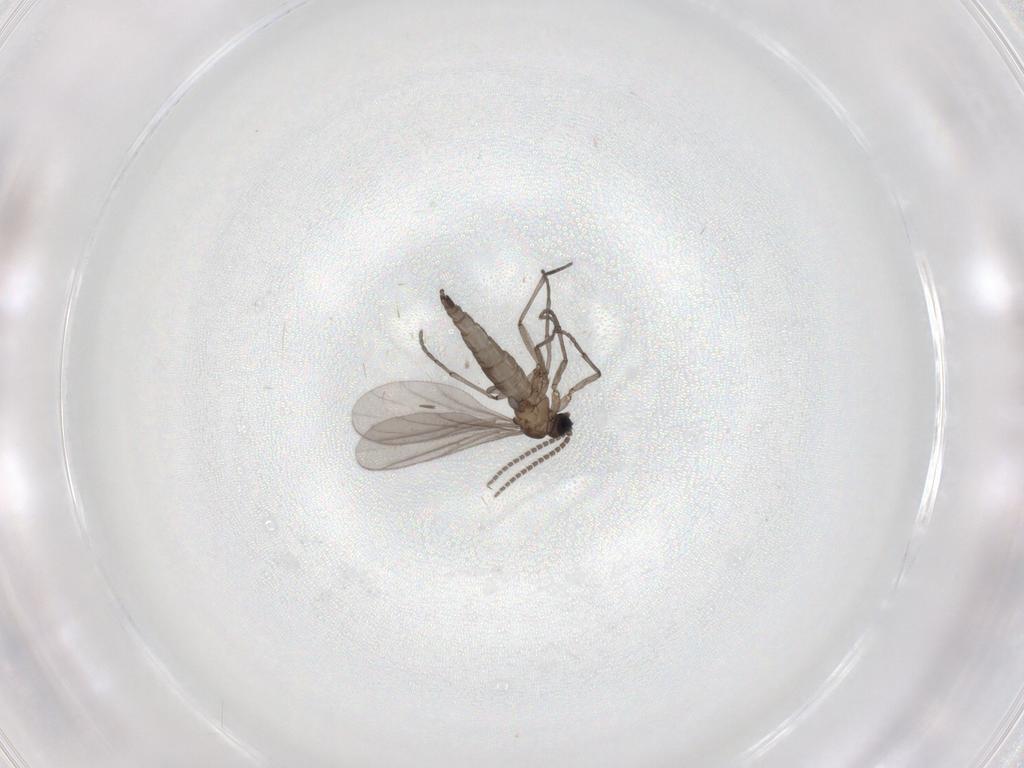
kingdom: Animalia
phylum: Arthropoda
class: Insecta
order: Diptera
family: Sciaridae
